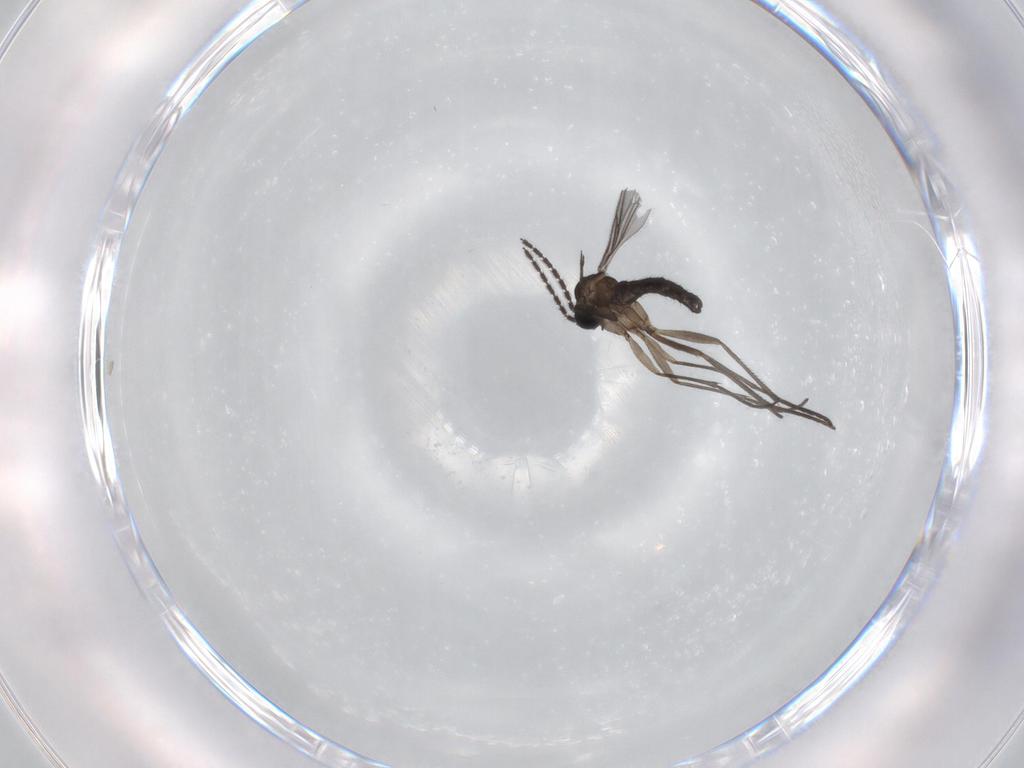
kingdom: Animalia
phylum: Arthropoda
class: Insecta
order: Diptera
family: Sciaridae
